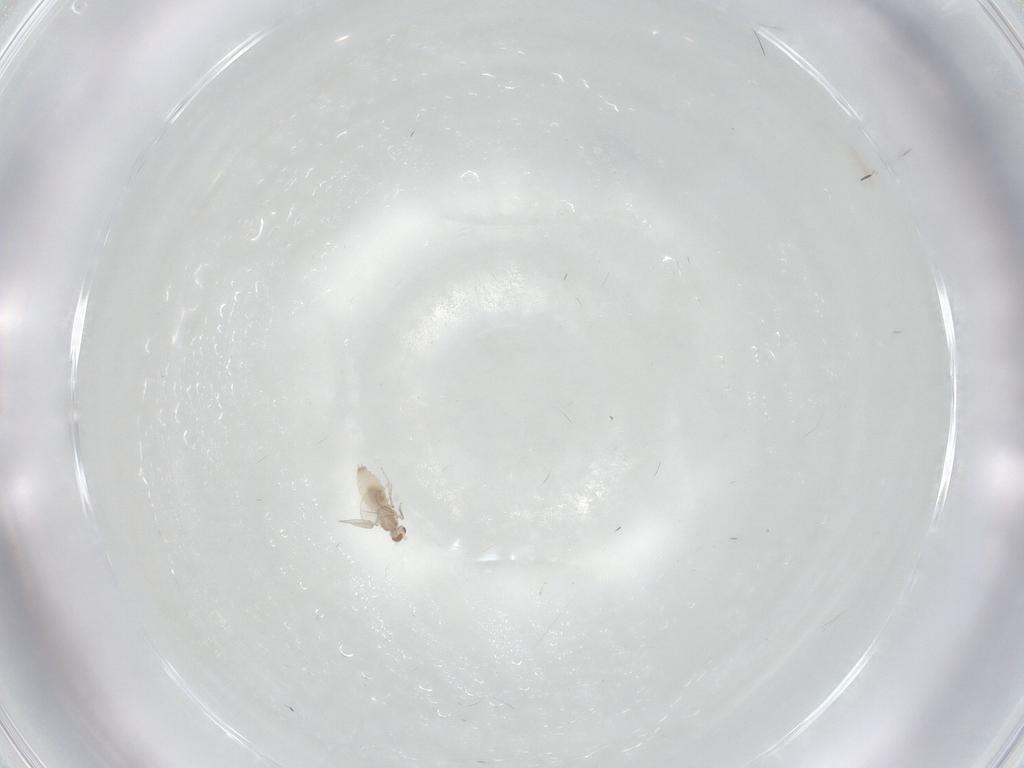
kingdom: Animalia
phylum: Arthropoda
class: Insecta
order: Diptera
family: Cecidomyiidae
